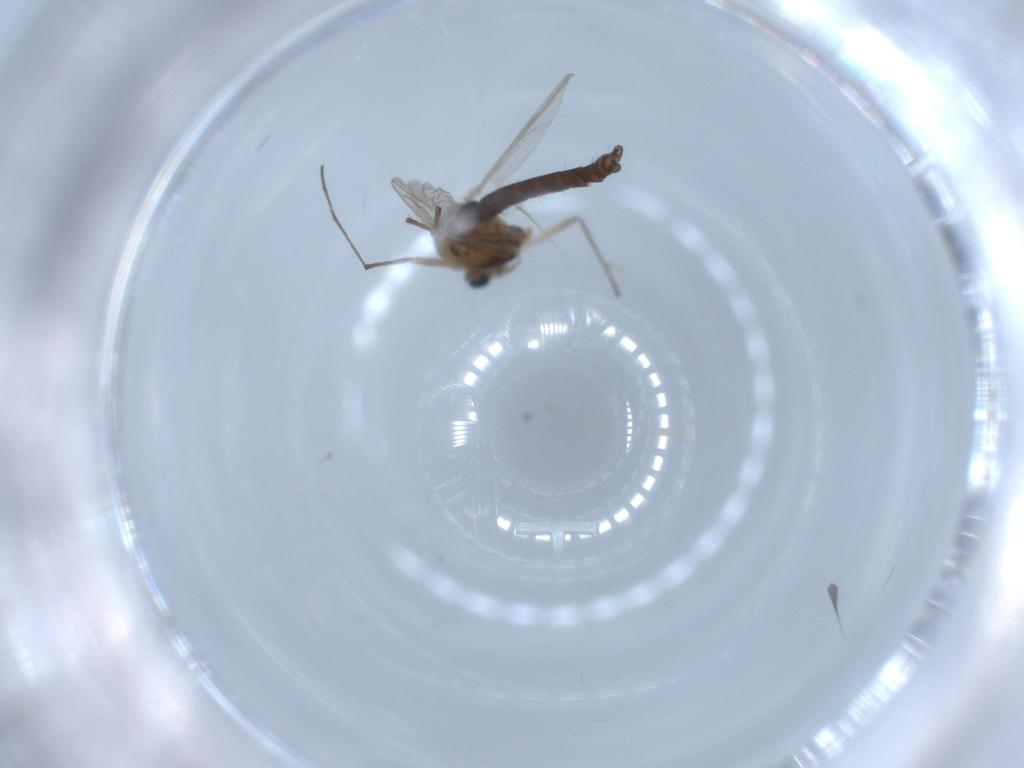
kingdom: Animalia
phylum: Arthropoda
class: Insecta
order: Diptera
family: Chironomidae
